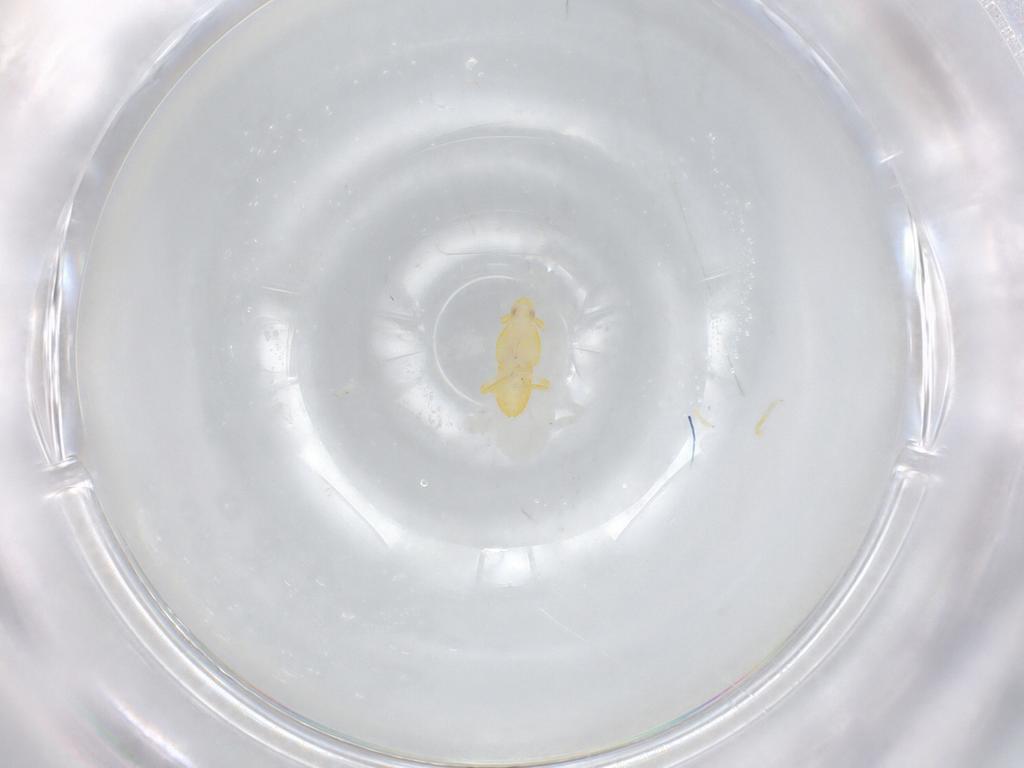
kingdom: Animalia
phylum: Arthropoda
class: Insecta
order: Hemiptera
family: Delphacidae
